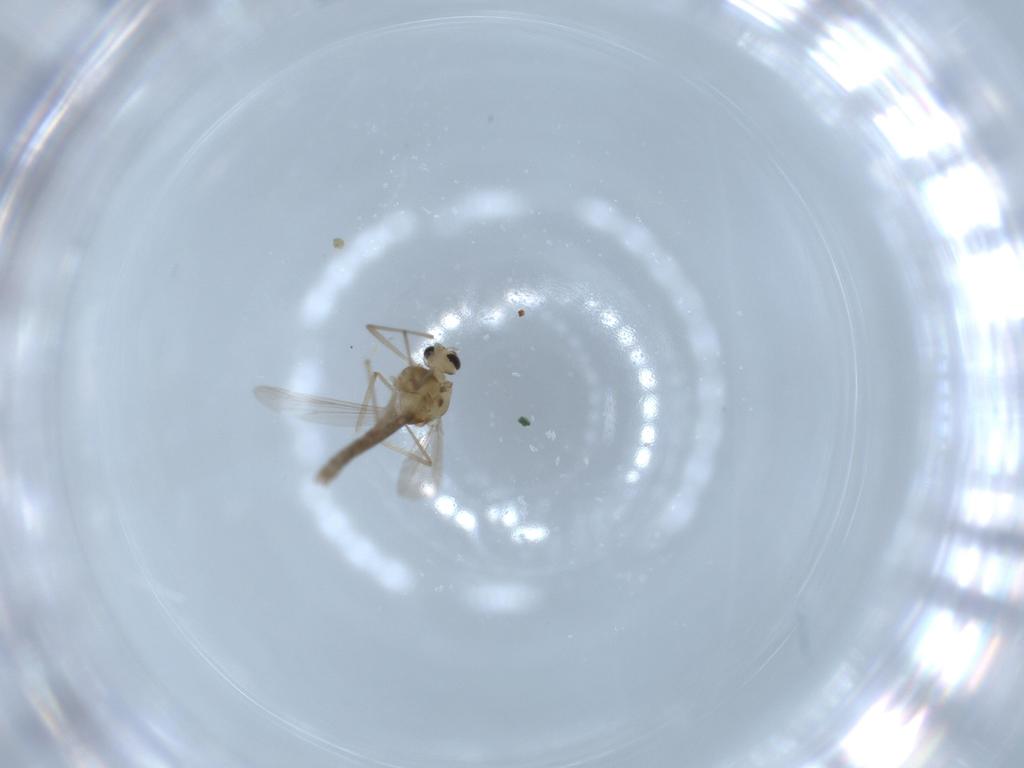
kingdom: Animalia
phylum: Arthropoda
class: Insecta
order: Diptera
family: Chironomidae
